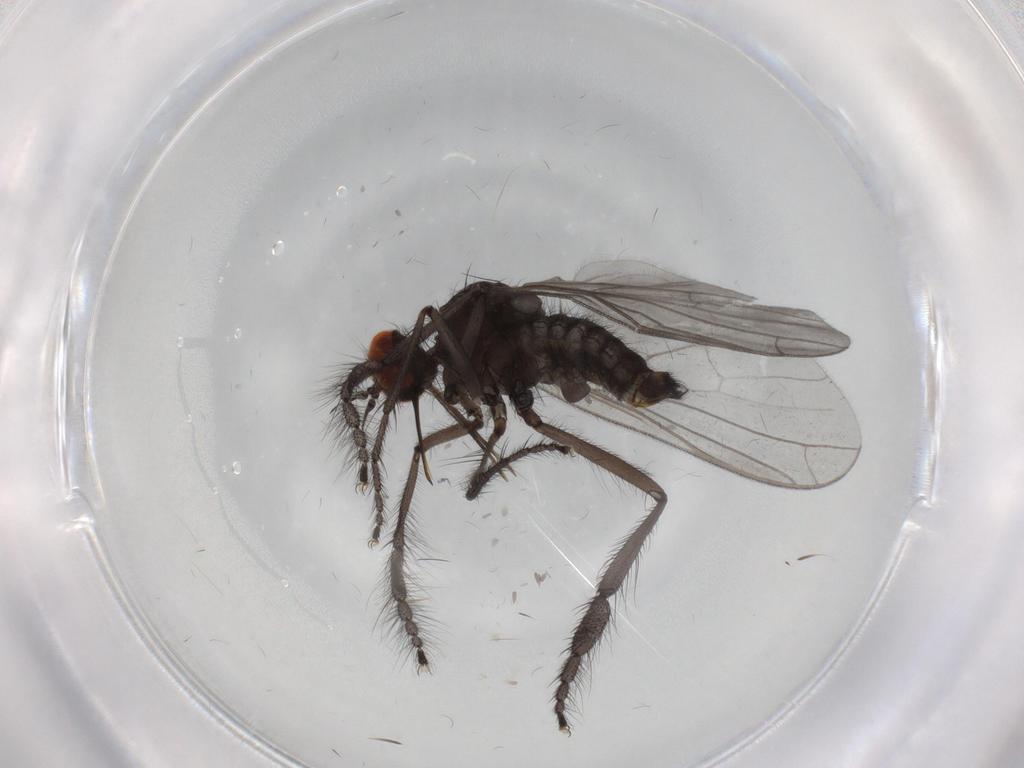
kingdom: Animalia
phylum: Arthropoda
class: Insecta
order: Diptera
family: Empididae
